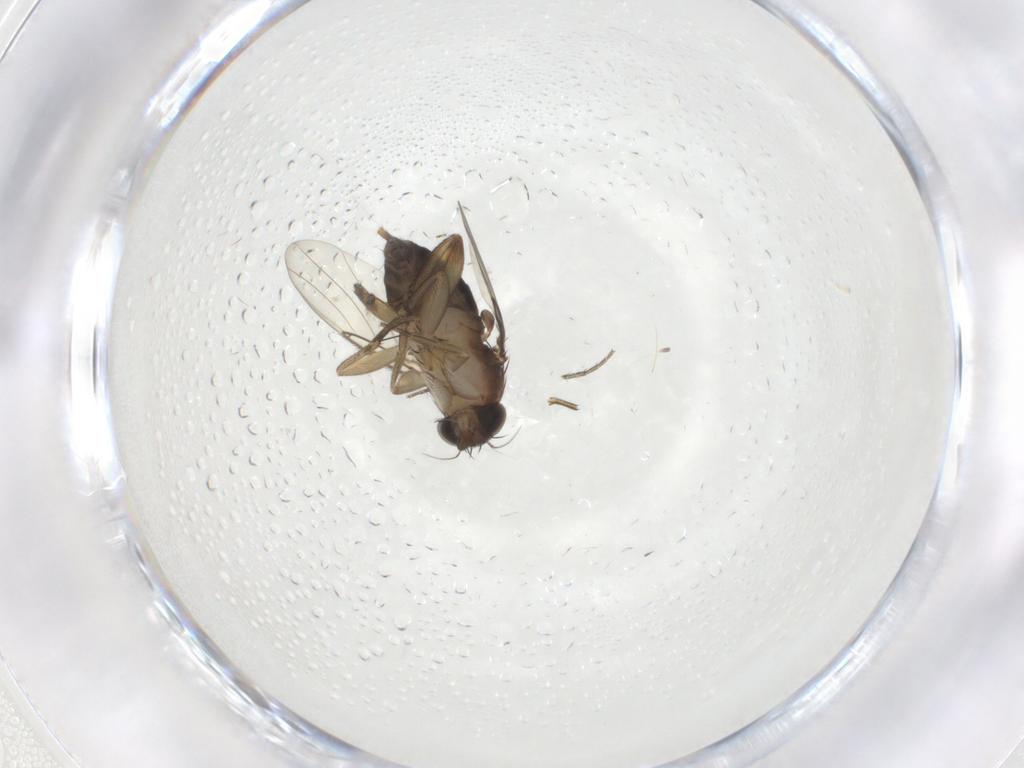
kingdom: Animalia
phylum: Arthropoda
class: Insecta
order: Diptera
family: Phoridae
